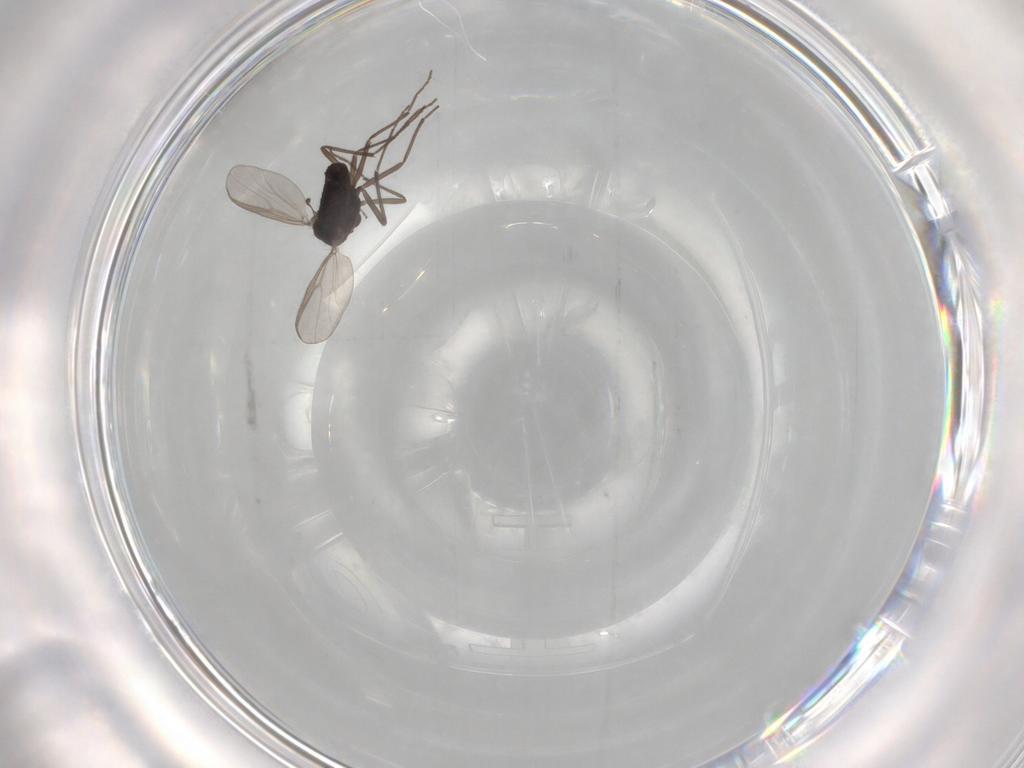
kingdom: Animalia
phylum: Arthropoda
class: Insecta
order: Diptera
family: Chironomidae
